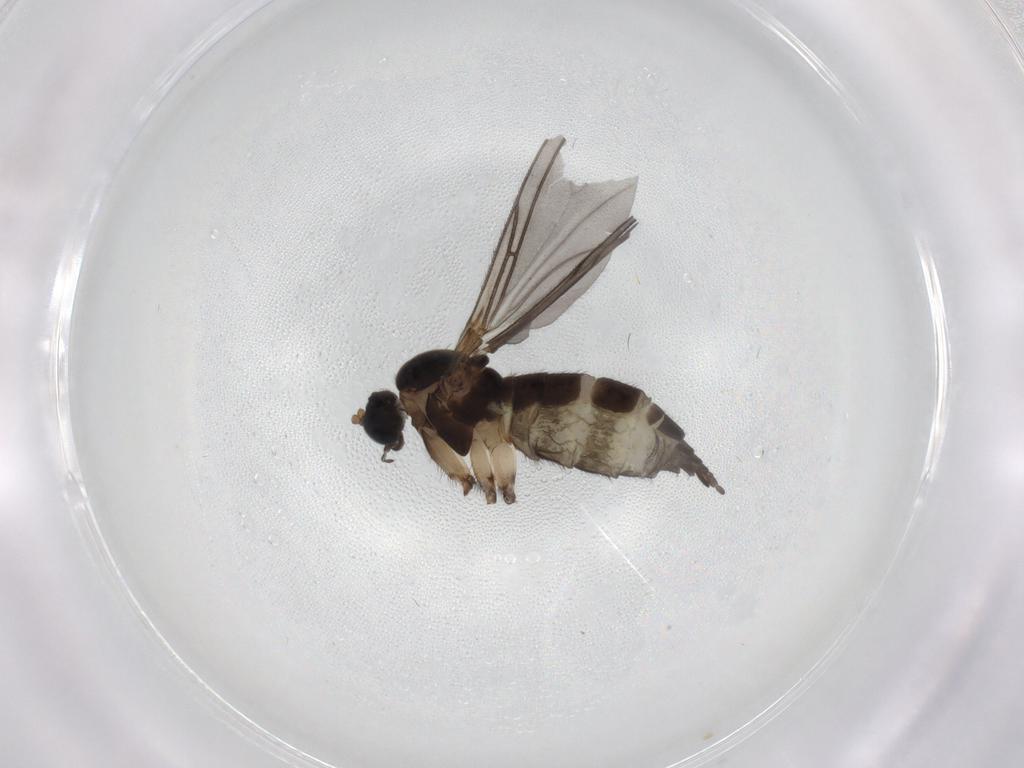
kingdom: Animalia
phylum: Arthropoda
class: Insecta
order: Diptera
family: Sciaridae
